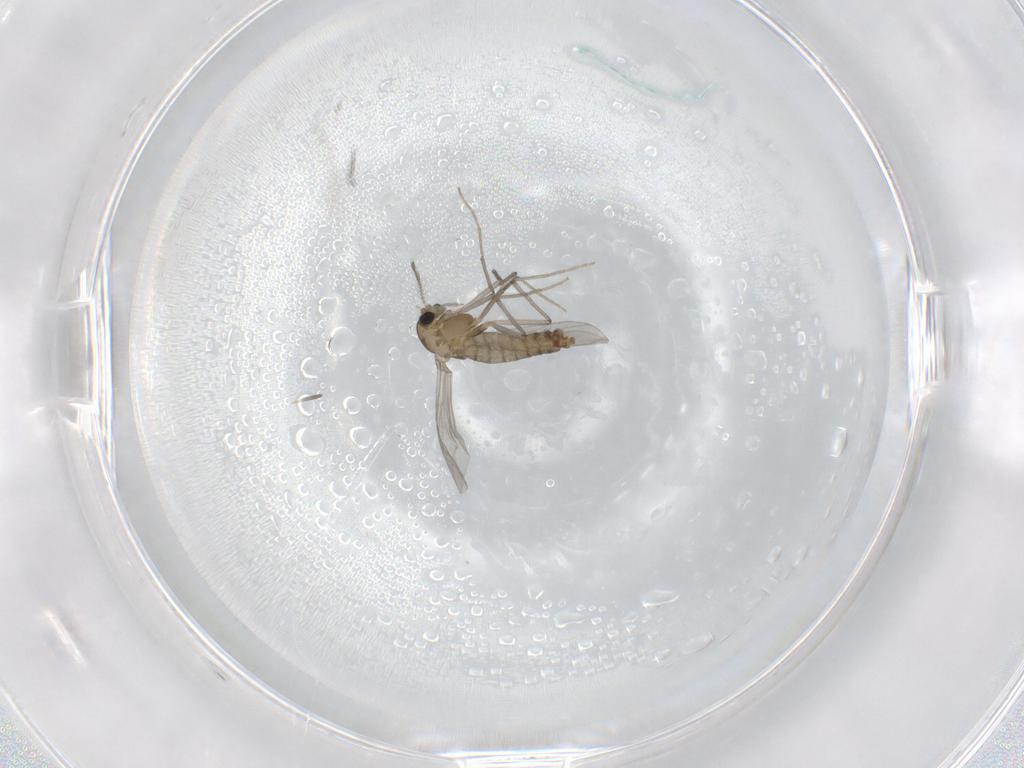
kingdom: Animalia
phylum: Arthropoda
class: Insecta
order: Diptera
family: Chironomidae
